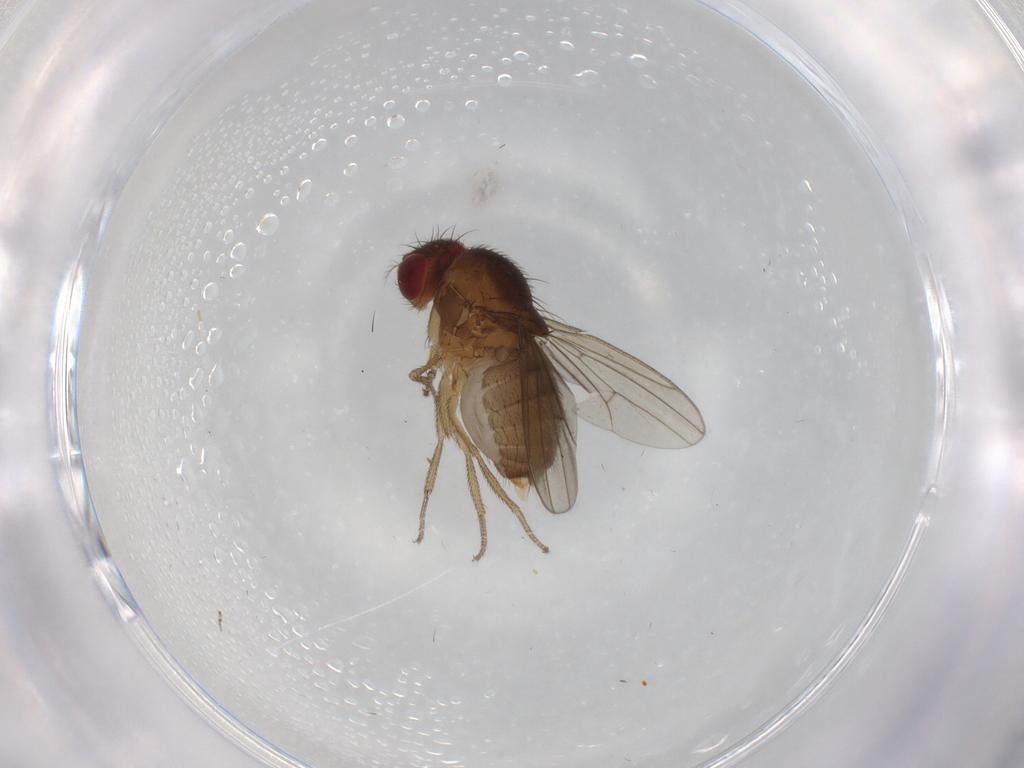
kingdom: Animalia
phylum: Arthropoda
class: Insecta
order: Diptera
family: Drosophilidae
